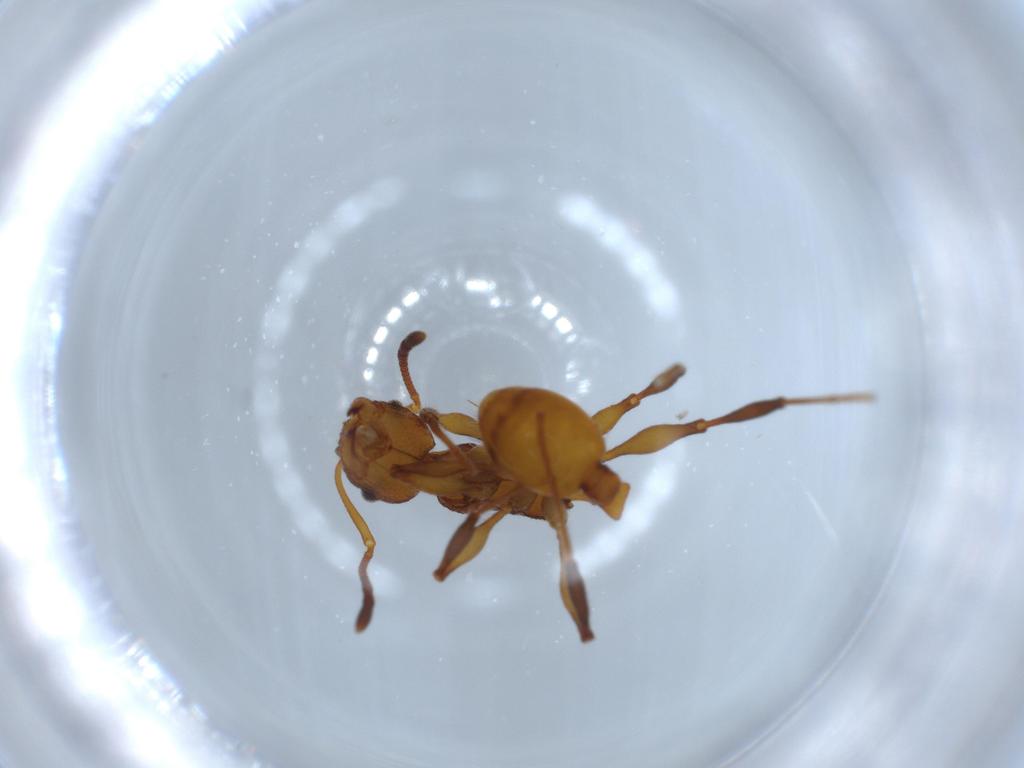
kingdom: Animalia
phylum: Arthropoda
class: Insecta
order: Hymenoptera
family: Formicidae
